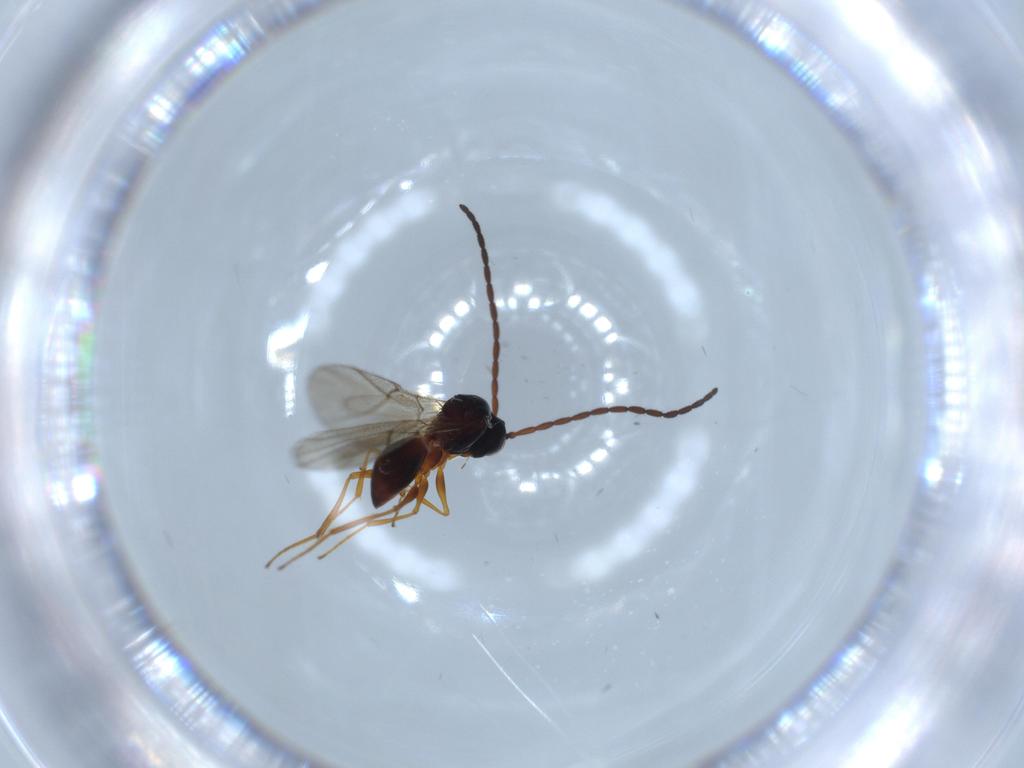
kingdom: Animalia
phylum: Arthropoda
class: Insecta
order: Hymenoptera
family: Figitidae
